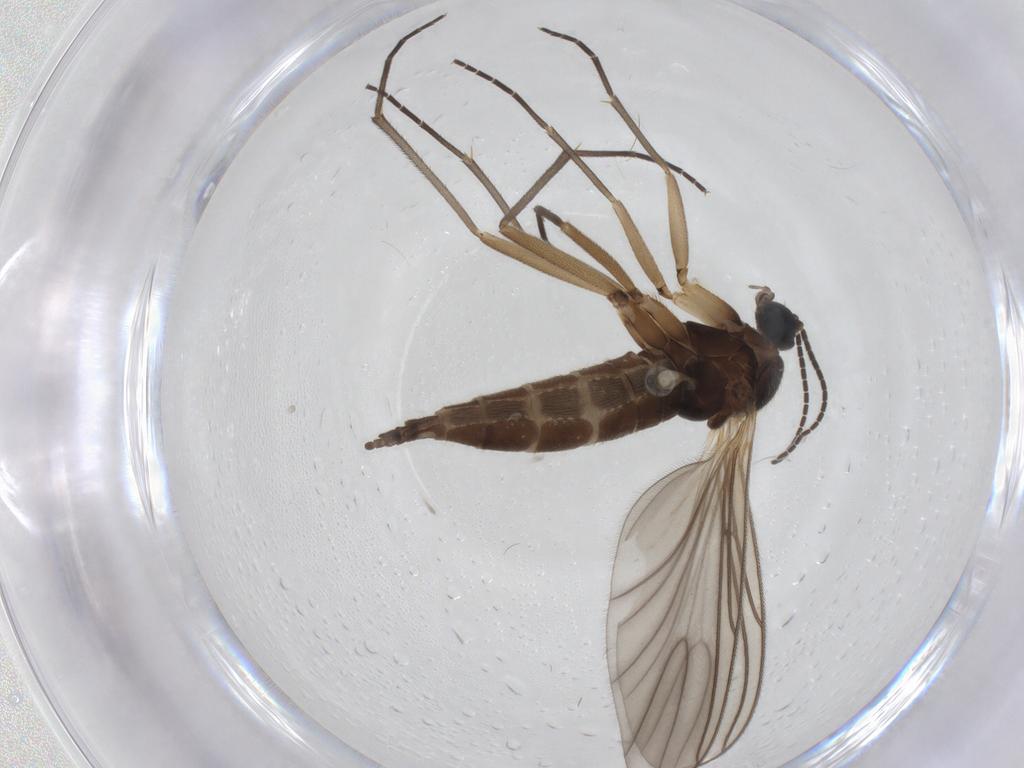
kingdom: Animalia
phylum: Arthropoda
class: Insecta
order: Diptera
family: Sciaridae
